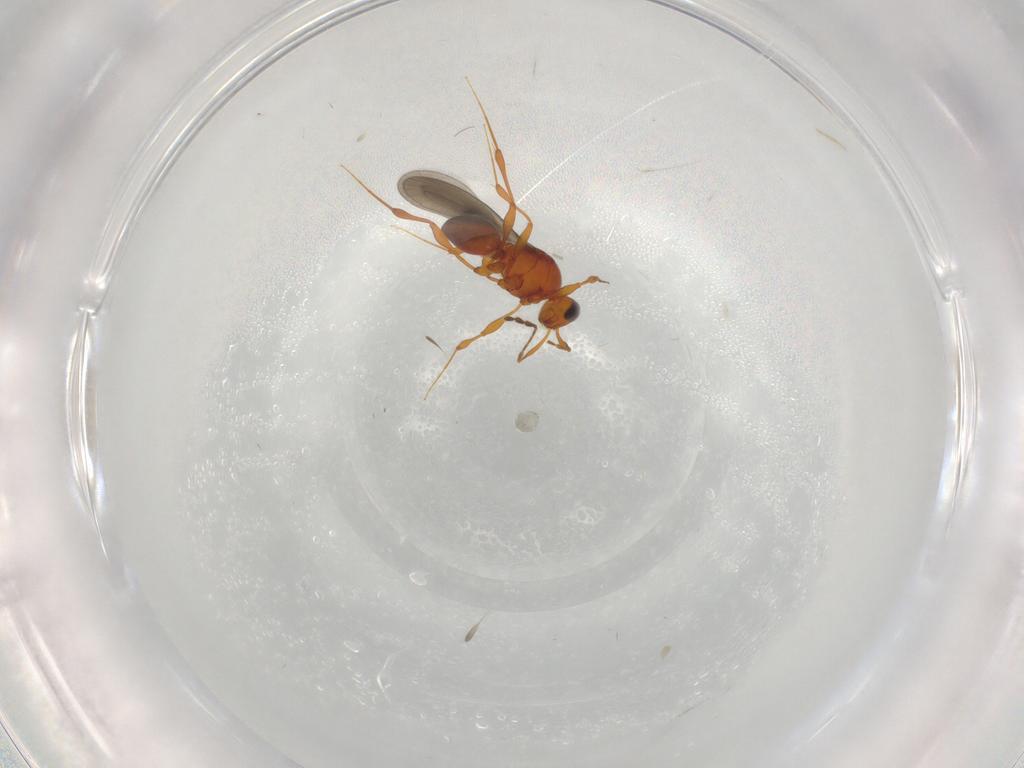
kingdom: Animalia
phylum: Arthropoda
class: Insecta
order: Hymenoptera
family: Platygastridae
